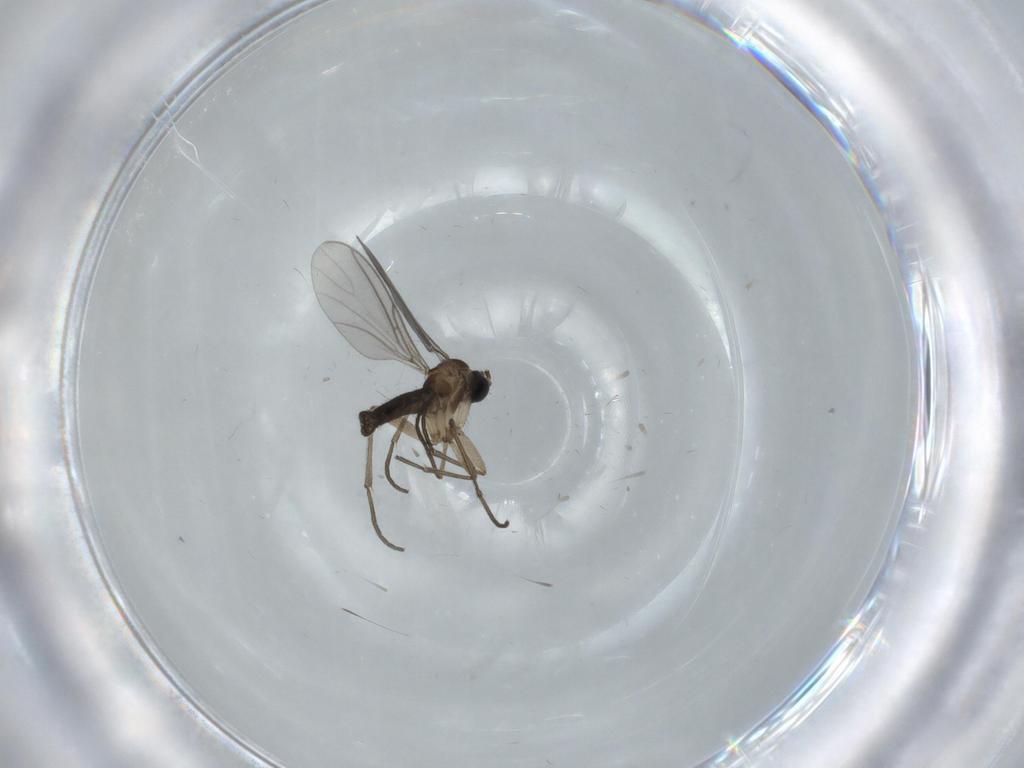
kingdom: Animalia
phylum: Arthropoda
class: Insecta
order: Diptera
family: Sciaridae
